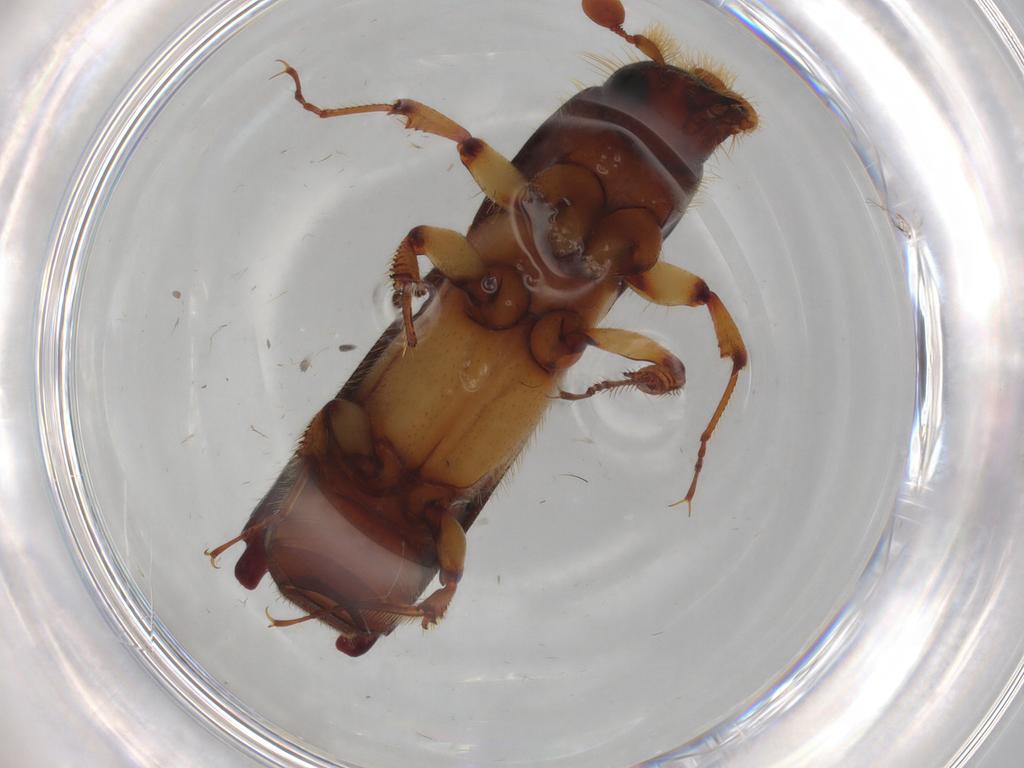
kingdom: Animalia
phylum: Arthropoda
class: Insecta
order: Coleoptera
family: Curculionidae
